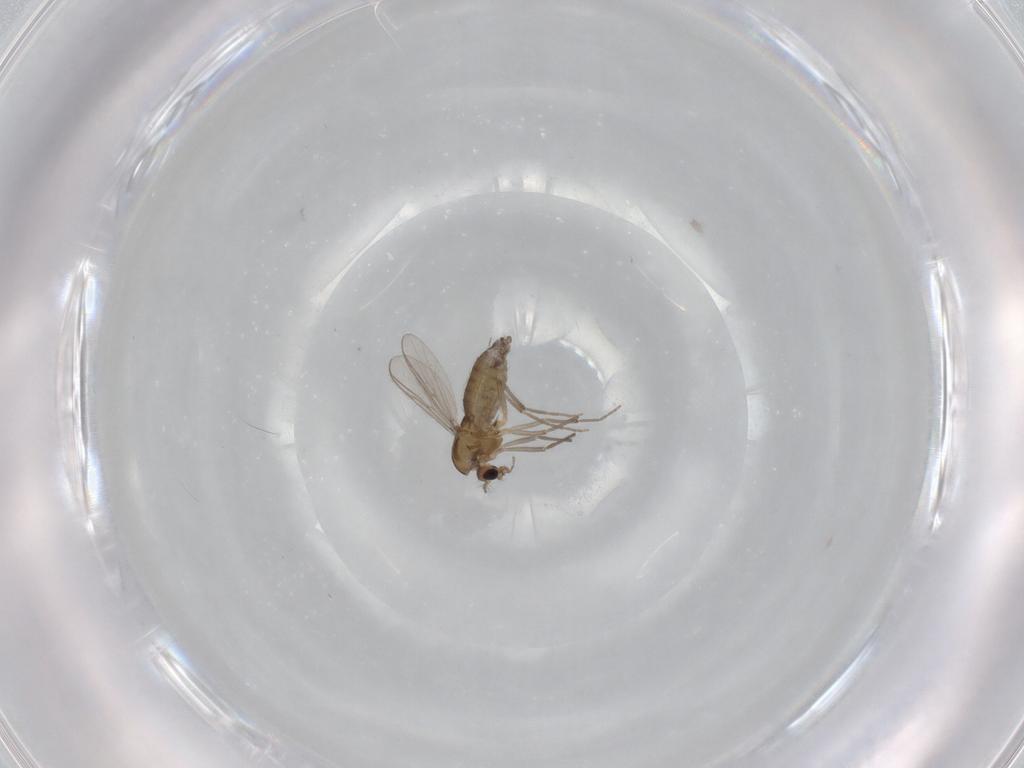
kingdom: Animalia
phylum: Arthropoda
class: Insecta
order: Diptera
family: Chironomidae
